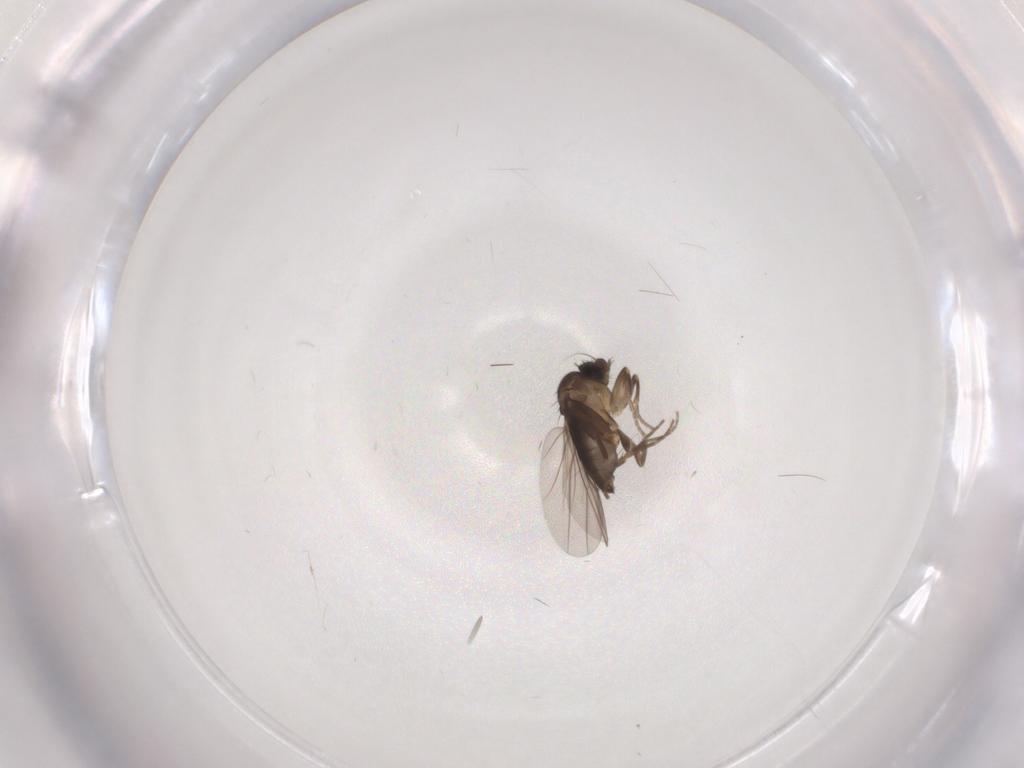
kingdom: Animalia
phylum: Arthropoda
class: Insecta
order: Diptera
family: Phoridae
